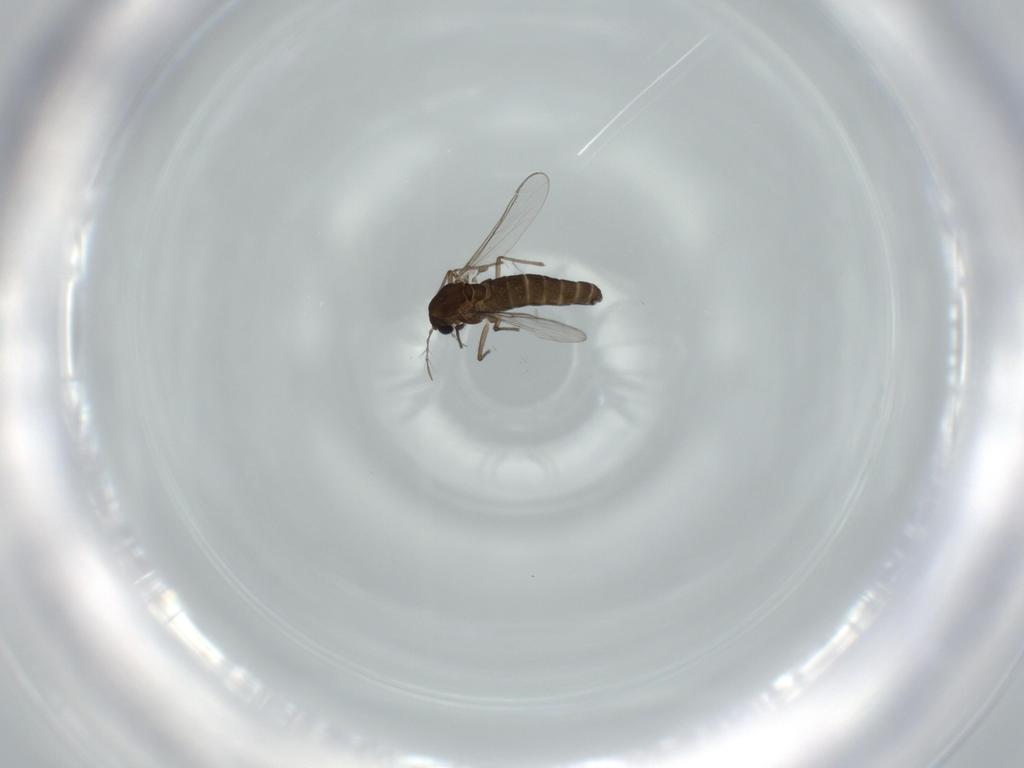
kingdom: Animalia
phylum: Arthropoda
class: Insecta
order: Diptera
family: Chironomidae
